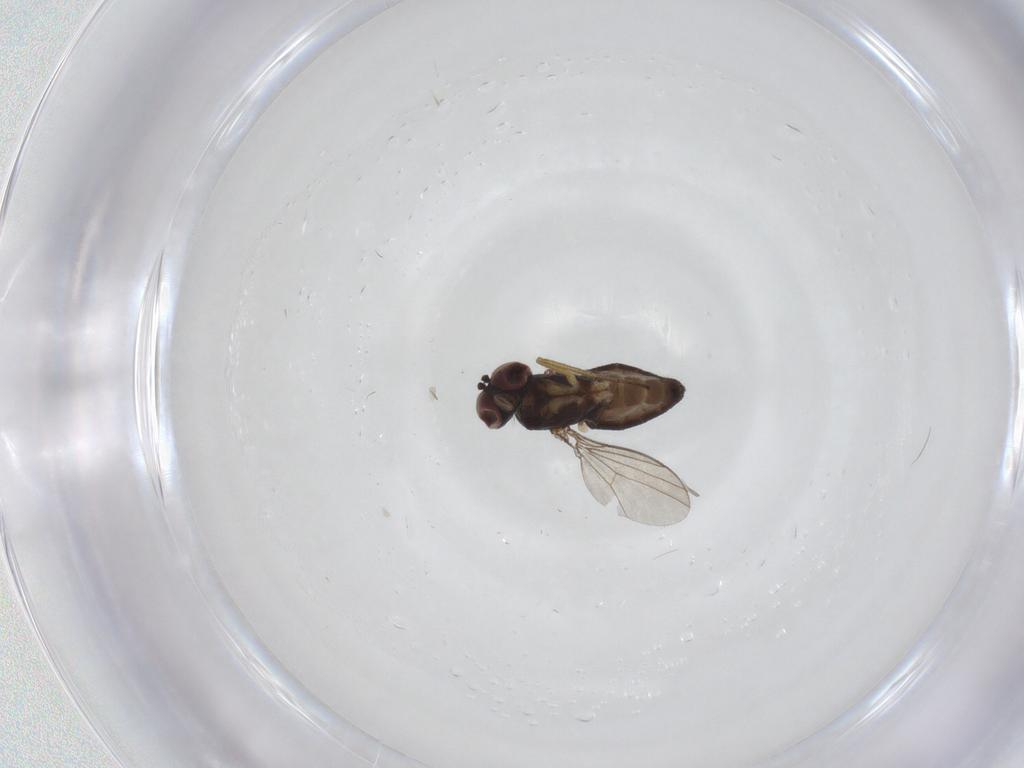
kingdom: Animalia
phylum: Arthropoda
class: Insecta
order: Diptera
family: Dolichopodidae
